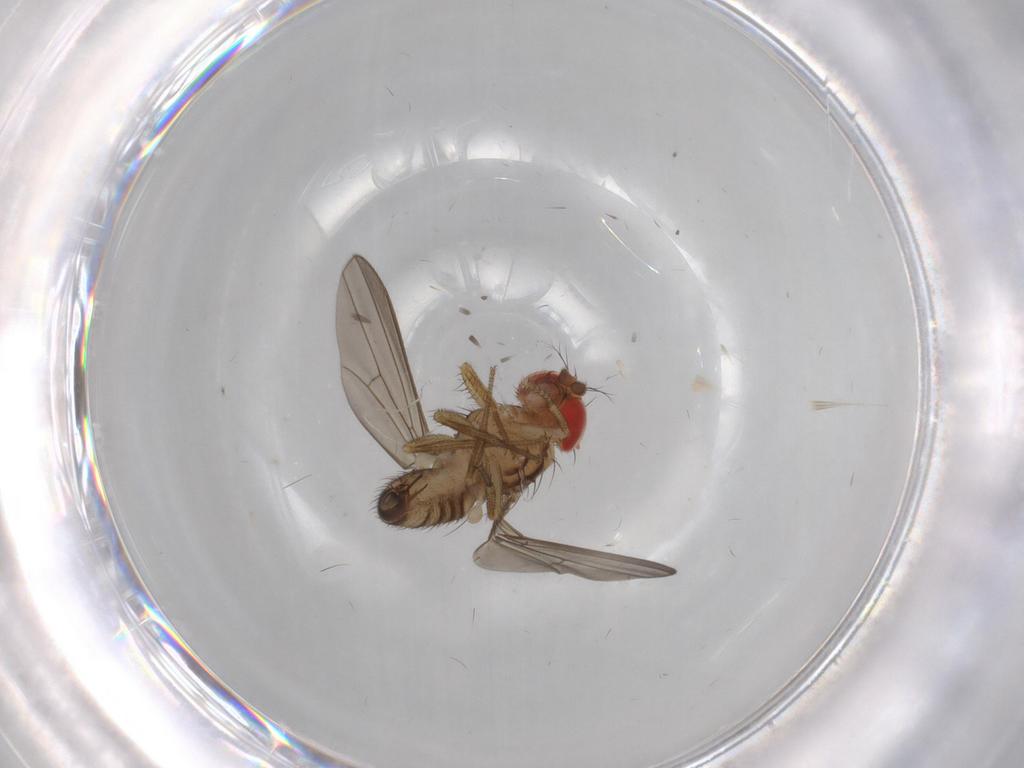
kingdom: Animalia
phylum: Arthropoda
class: Insecta
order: Diptera
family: Drosophilidae
